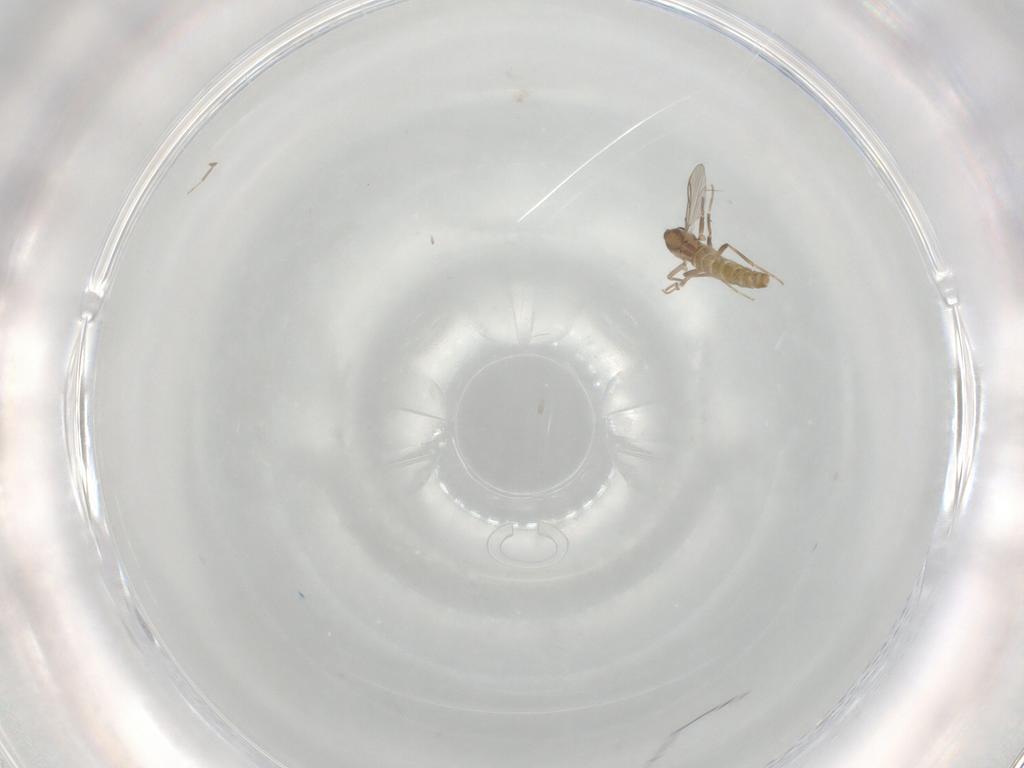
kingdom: Animalia
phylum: Arthropoda
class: Insecta
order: Diptera
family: Chironomidae
